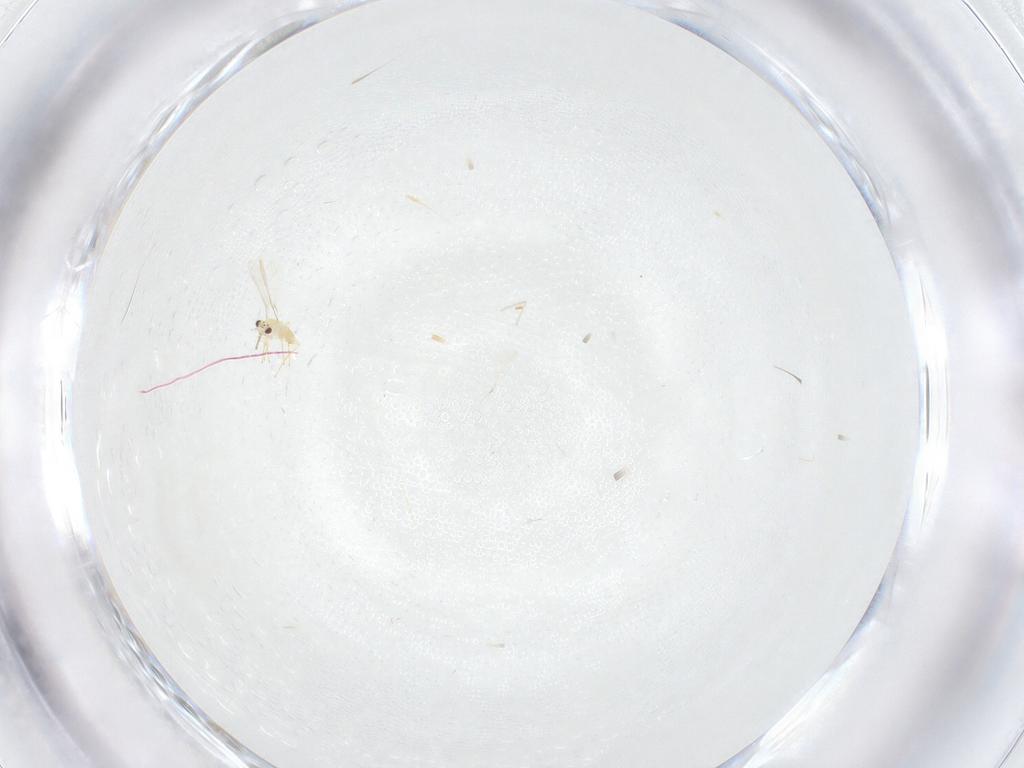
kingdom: Animalia
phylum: Arthropoda
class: Insecta
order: Hymenoptera
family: Mymaridae
